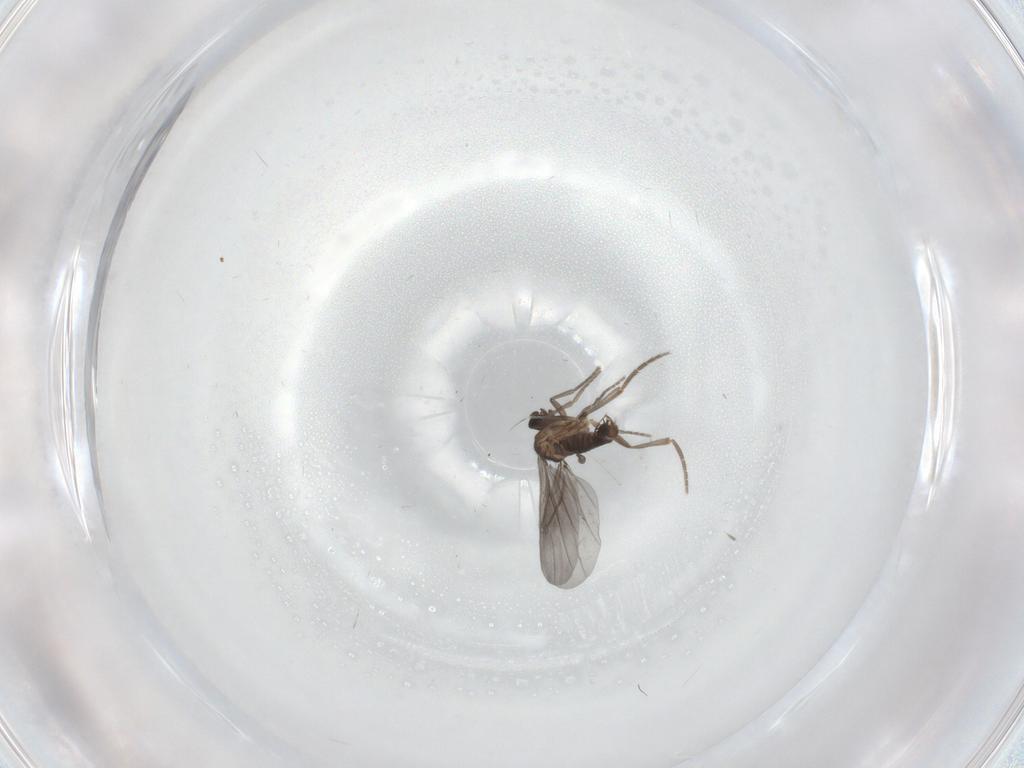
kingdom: Animalia
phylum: Arthropoda
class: Insecta
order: Diptera
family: Phoridae
